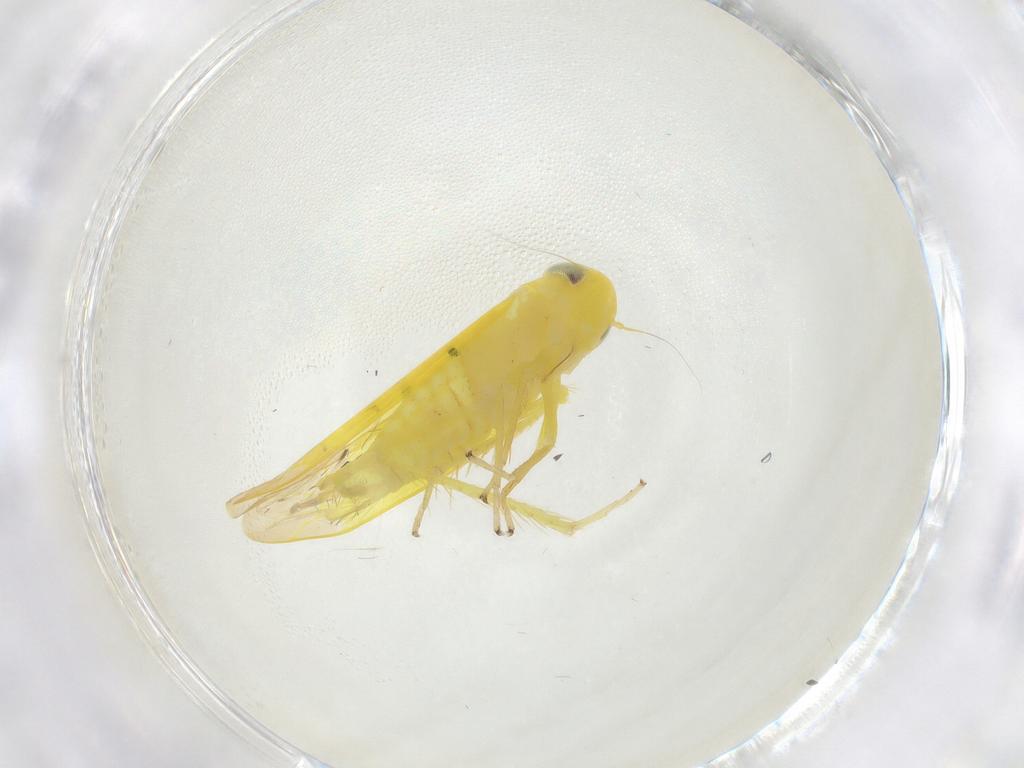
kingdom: Animalia
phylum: Arthropoda
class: Insecta
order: Hemiptera
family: Cicadellidae
